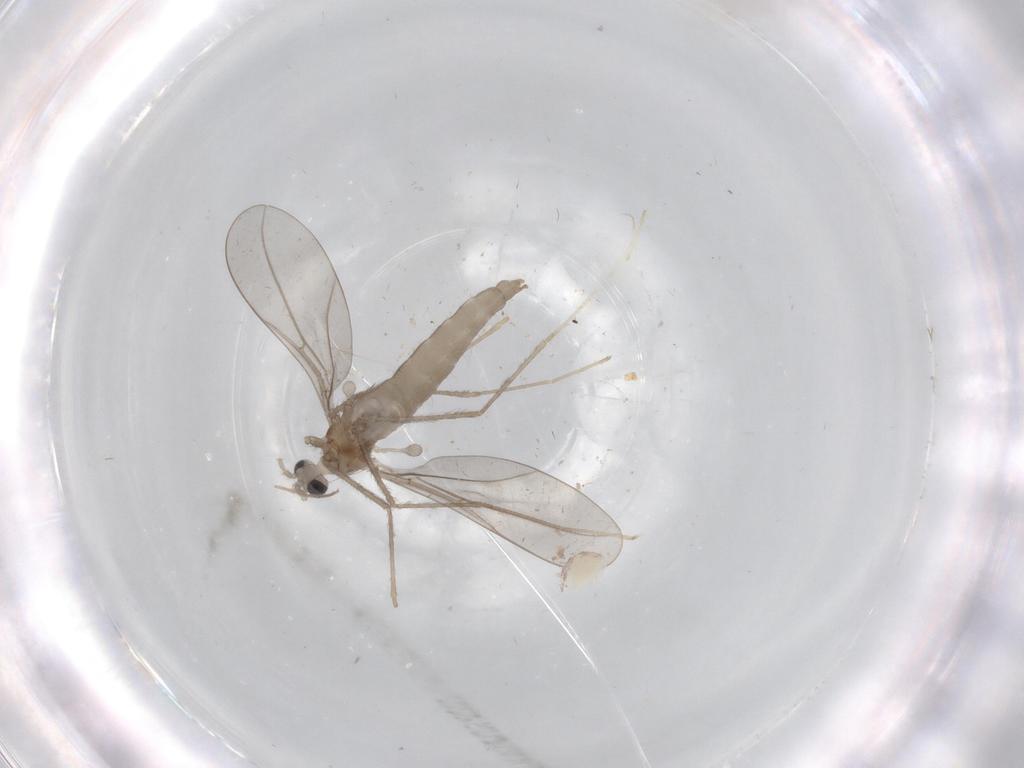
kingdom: Animalia
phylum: Arthropoda
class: Insecta
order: Diptera
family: Cecidomyiidae
